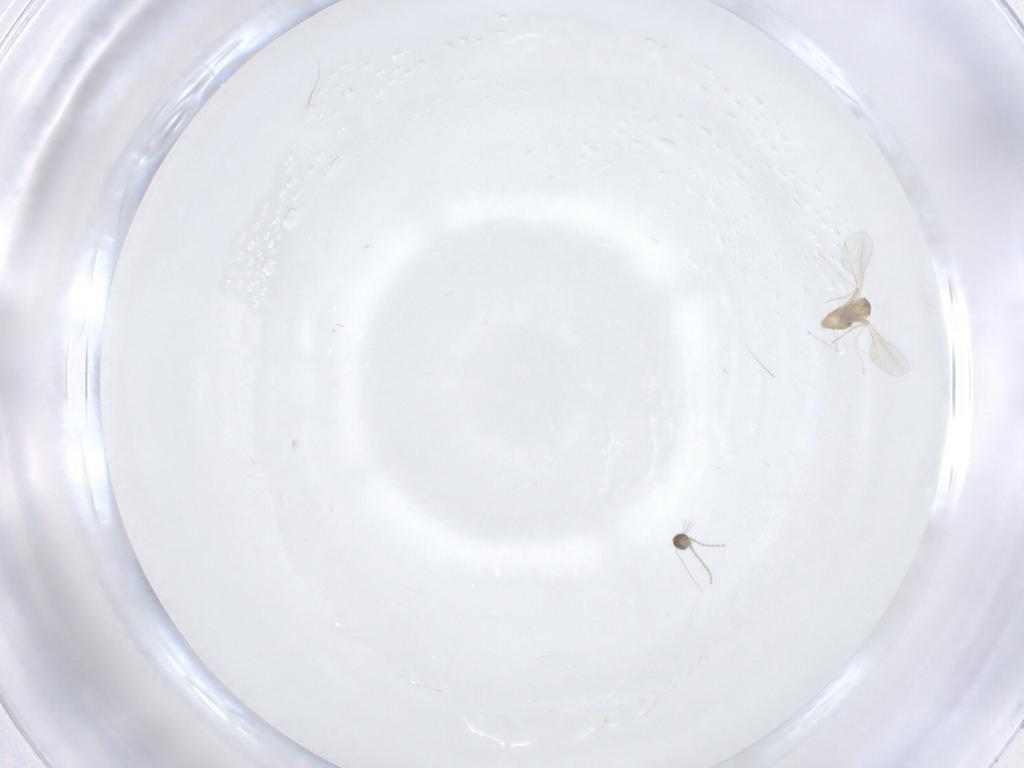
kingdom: Animalia
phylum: Arthropoda
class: Insecta
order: Diptera
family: Cecidomyiidae
